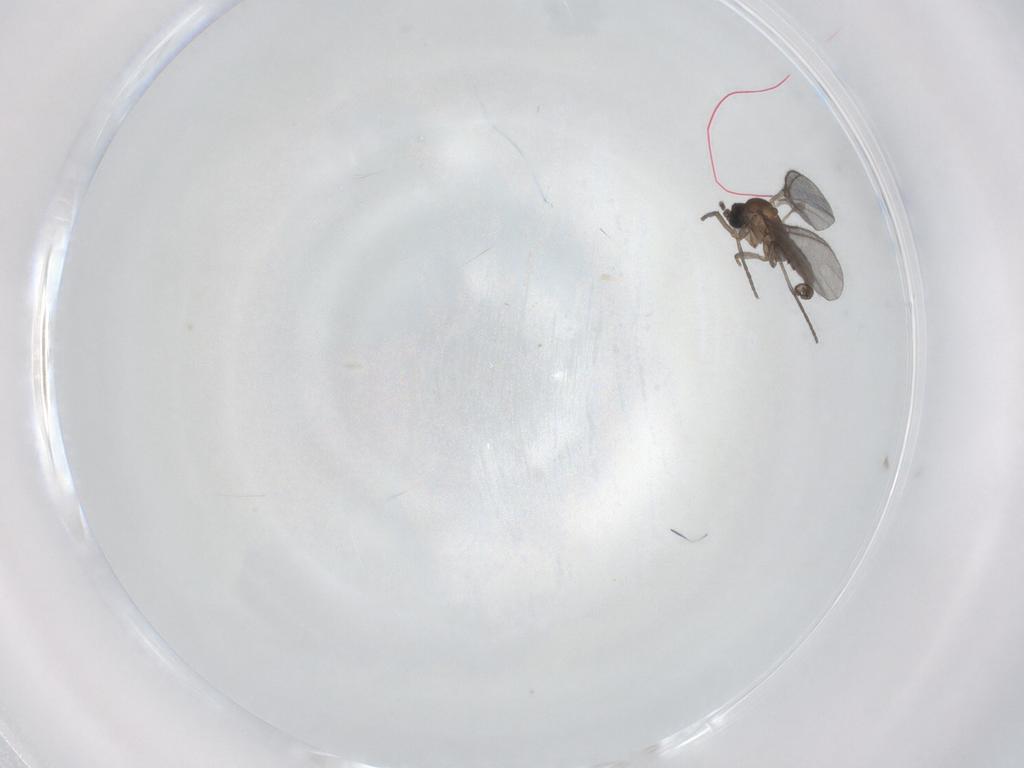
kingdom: Animalia
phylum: Arthropoda
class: Insecta
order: Diptera
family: Sciaridae
